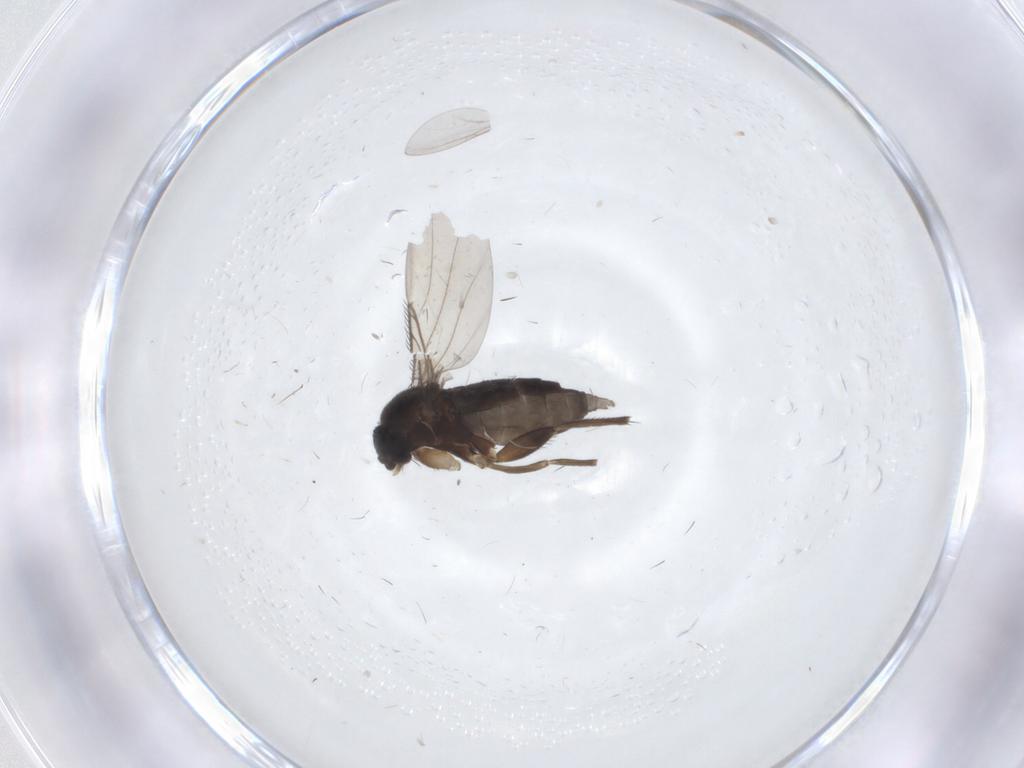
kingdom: Animalia
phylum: Arthropoda
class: Insecta
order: Diptera
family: Phoridae
